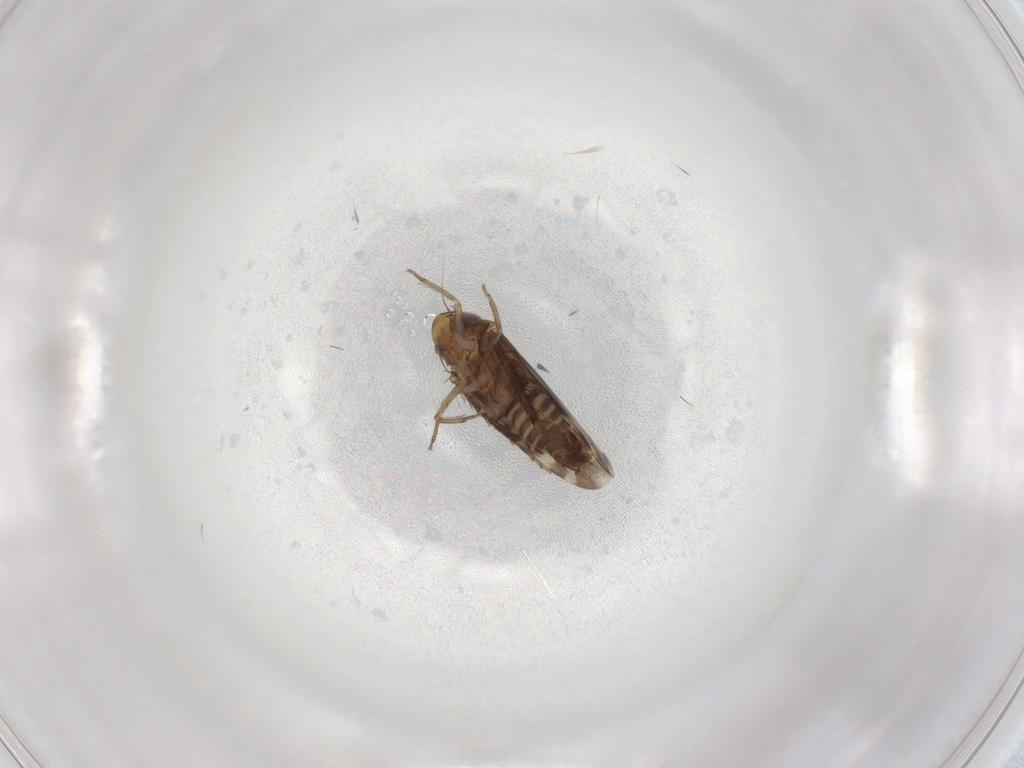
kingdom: Animalia
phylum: Arthropoda
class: Insecta
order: Hemiptera
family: Cicadellidae
